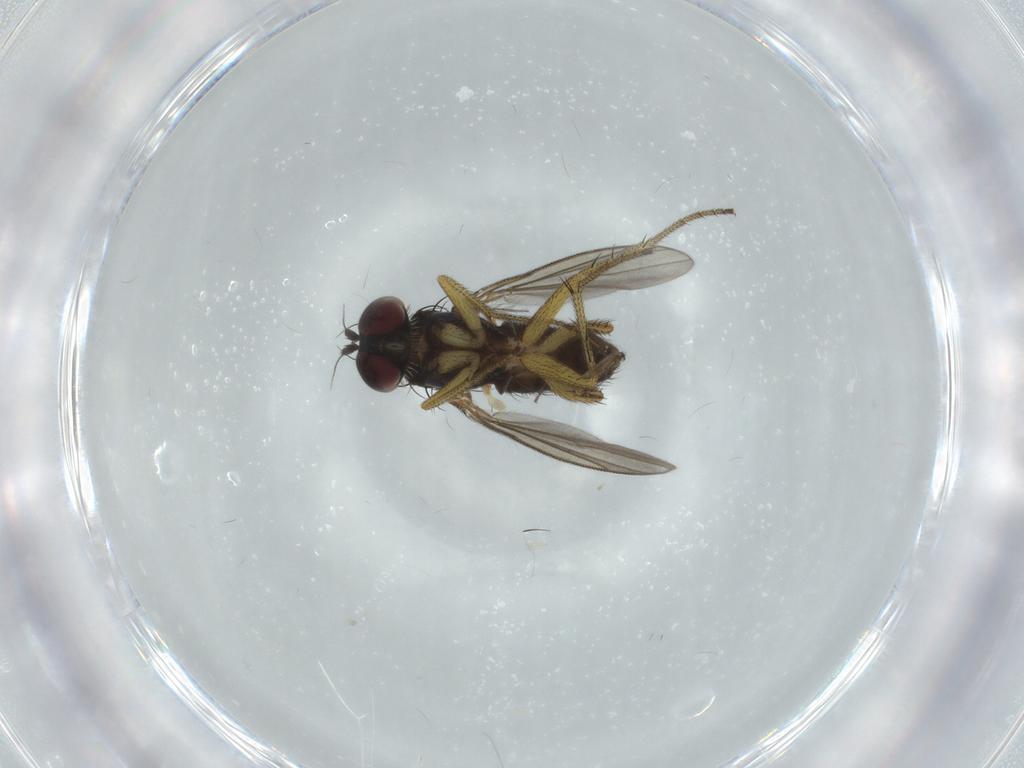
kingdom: Animalia
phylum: Arthropoda
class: Insecta
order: Diptera
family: Dolichopodidae
